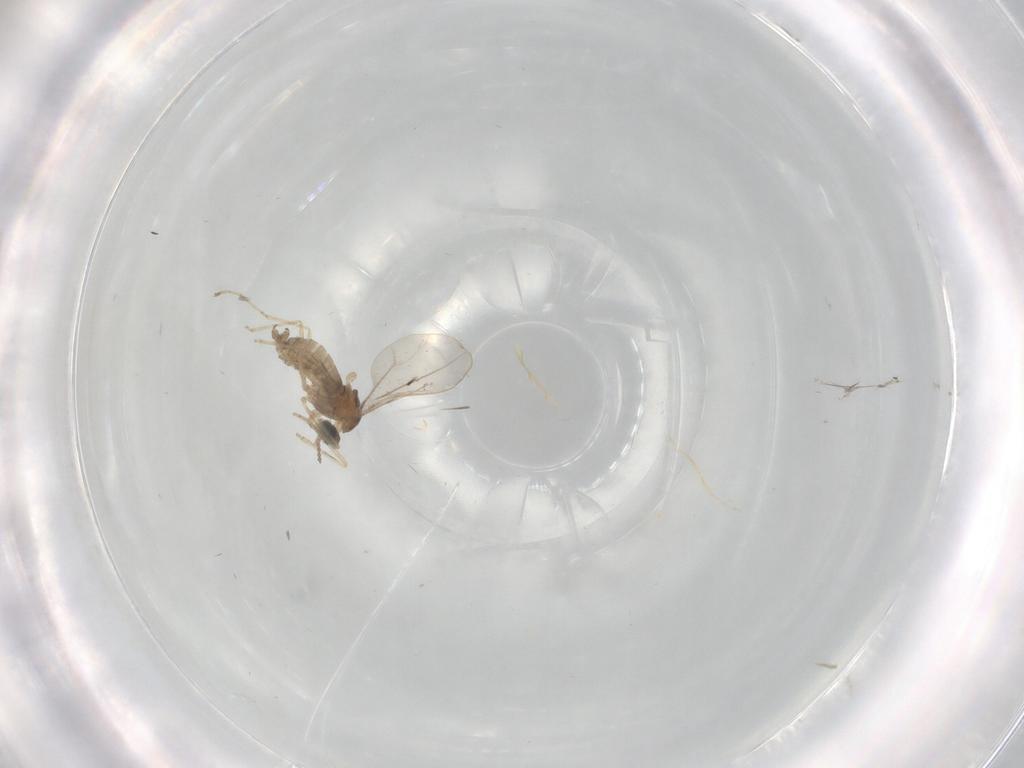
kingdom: Animalia
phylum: Arthropoda
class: Insecta
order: Diptera
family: Cecidomyiidae
